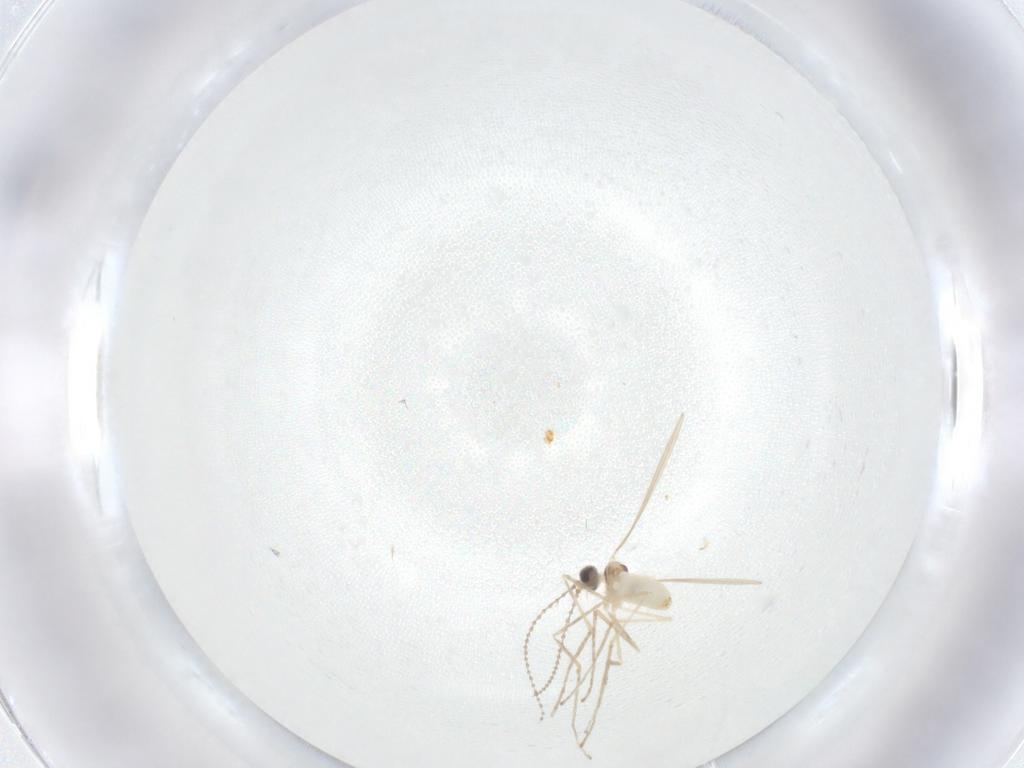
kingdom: Animalia
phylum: Arthropoda
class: Insecta
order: Diptera
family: Cecidomyiidae
